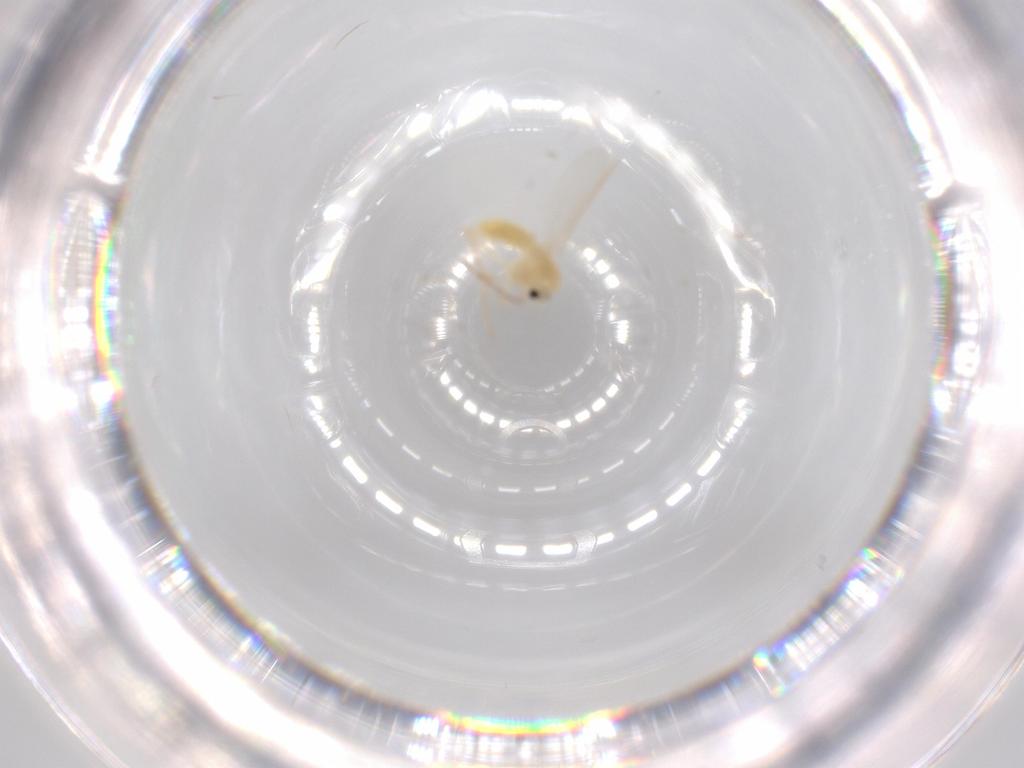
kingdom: Animalia
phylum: Arthropoda
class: Insecta
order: Diptera
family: Chironomidae
